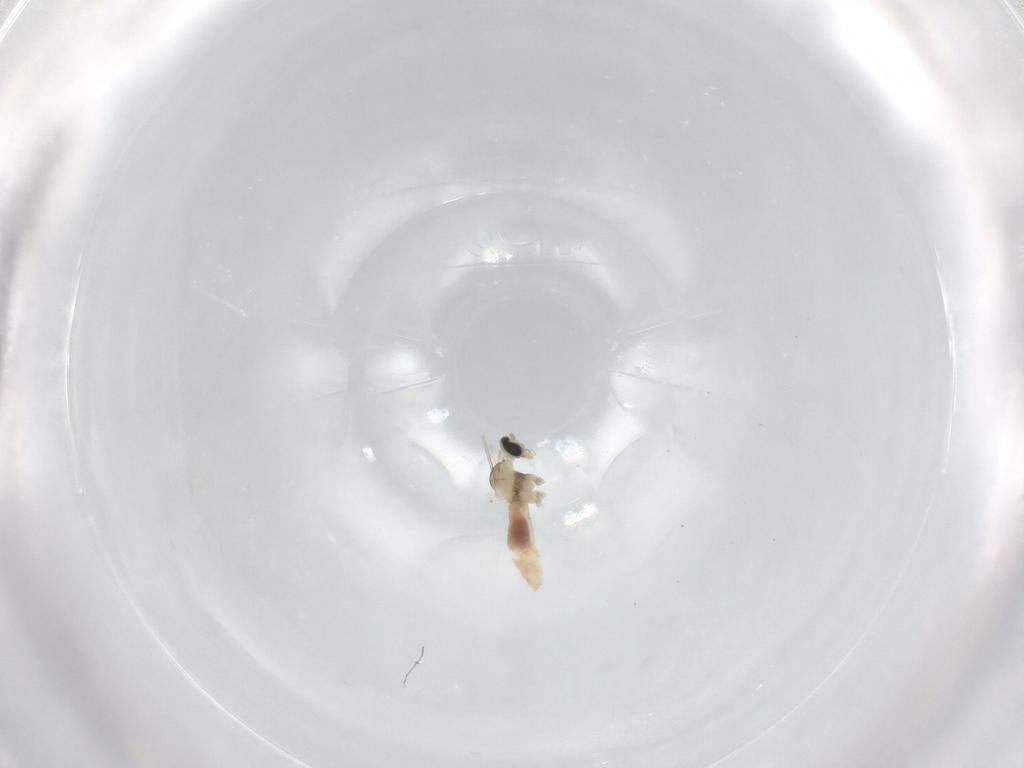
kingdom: Animalia
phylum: Arthropoda
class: Insecta
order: Diptera
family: Cecidomyiidae
